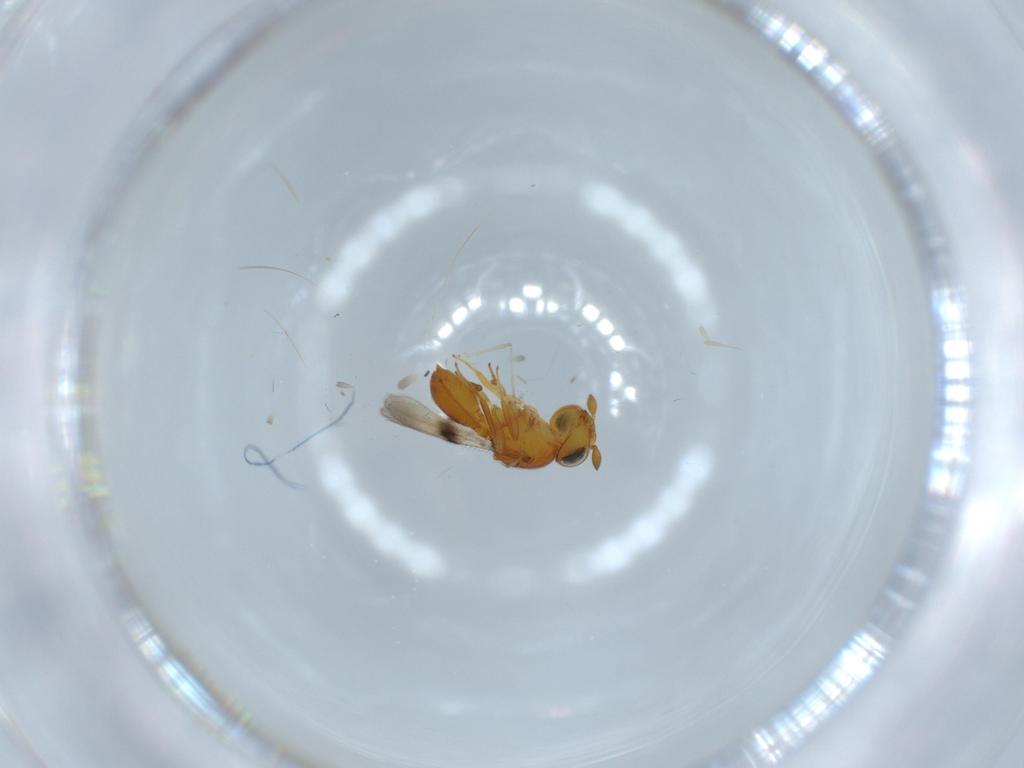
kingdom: Animalia
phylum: Arthropoda
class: Insecta
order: Hymenoptera
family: Scelionidae
